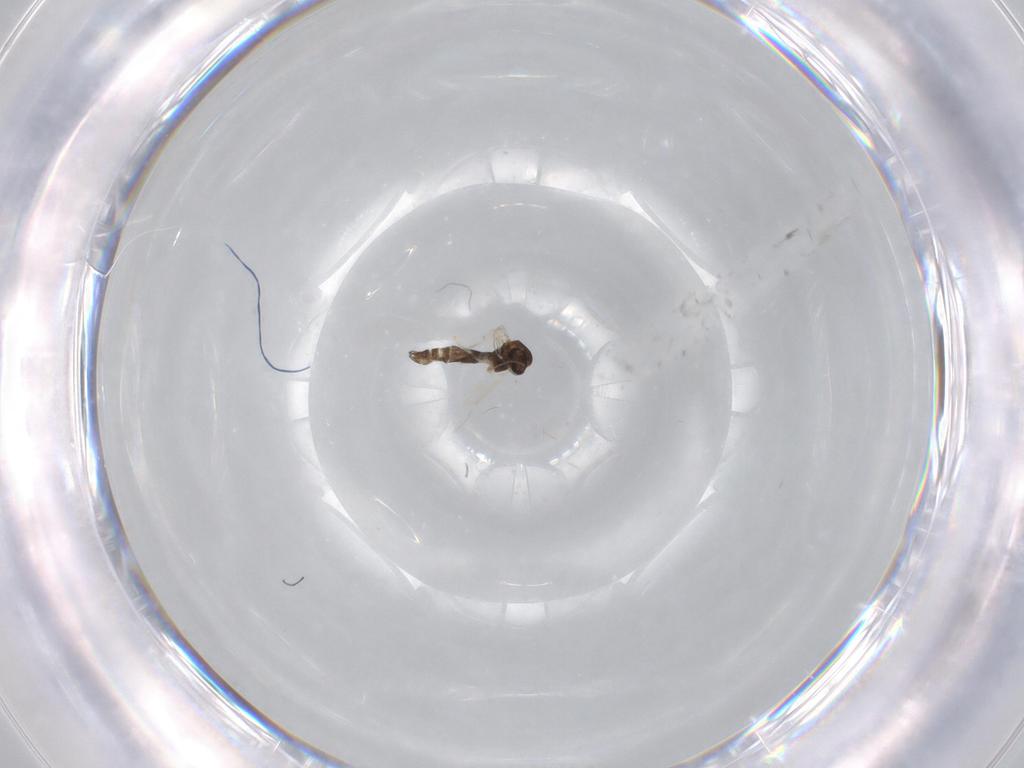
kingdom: Animalia
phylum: Arthropoda
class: Insecta
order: Diptera
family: Chironomidae
